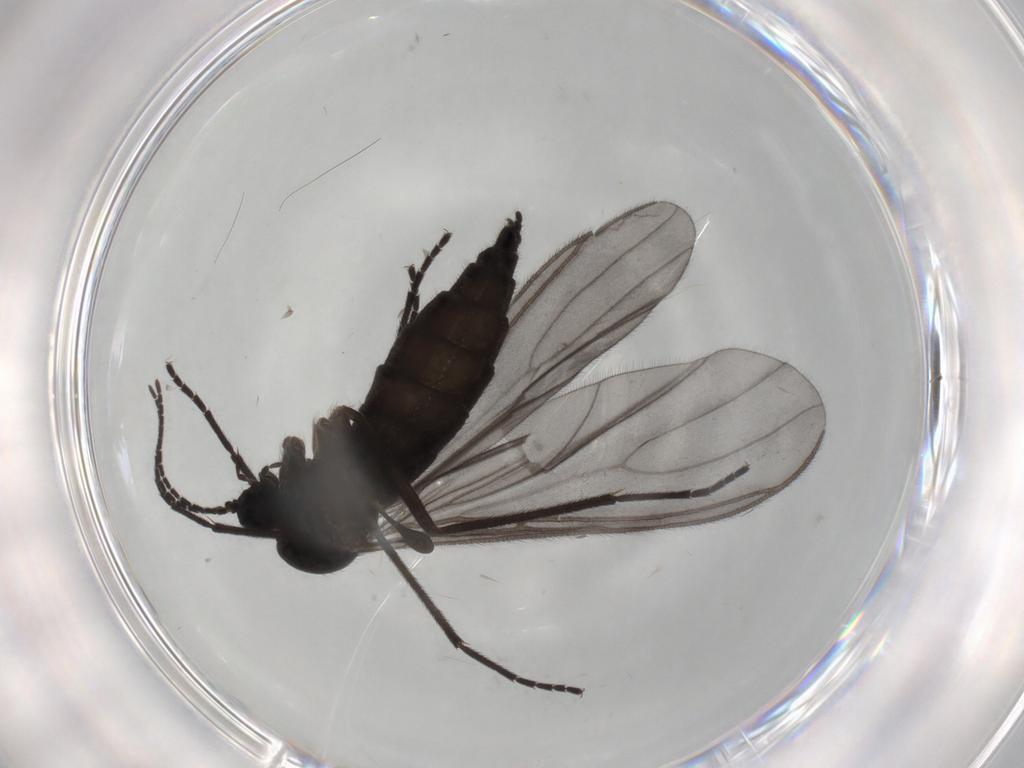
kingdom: Animalia
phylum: Arthropoda
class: Insecta
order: Diptera
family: Sciaridae
